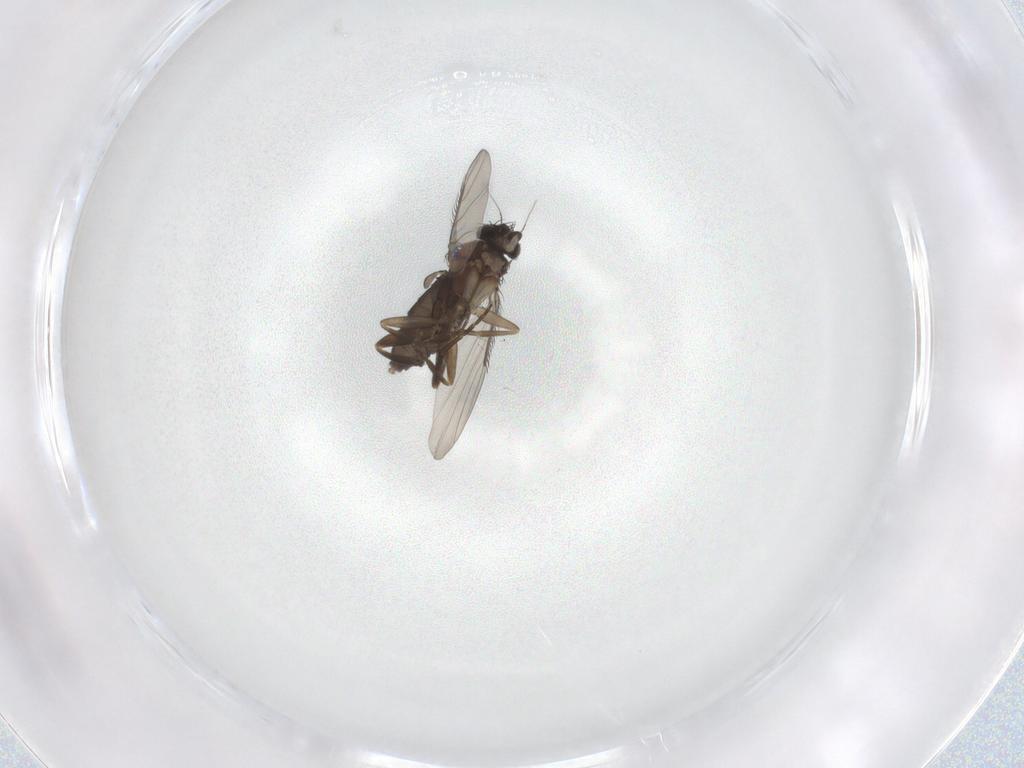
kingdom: Animalia
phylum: Arthropoda
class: Insecta
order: Diptera
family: Phoridae
